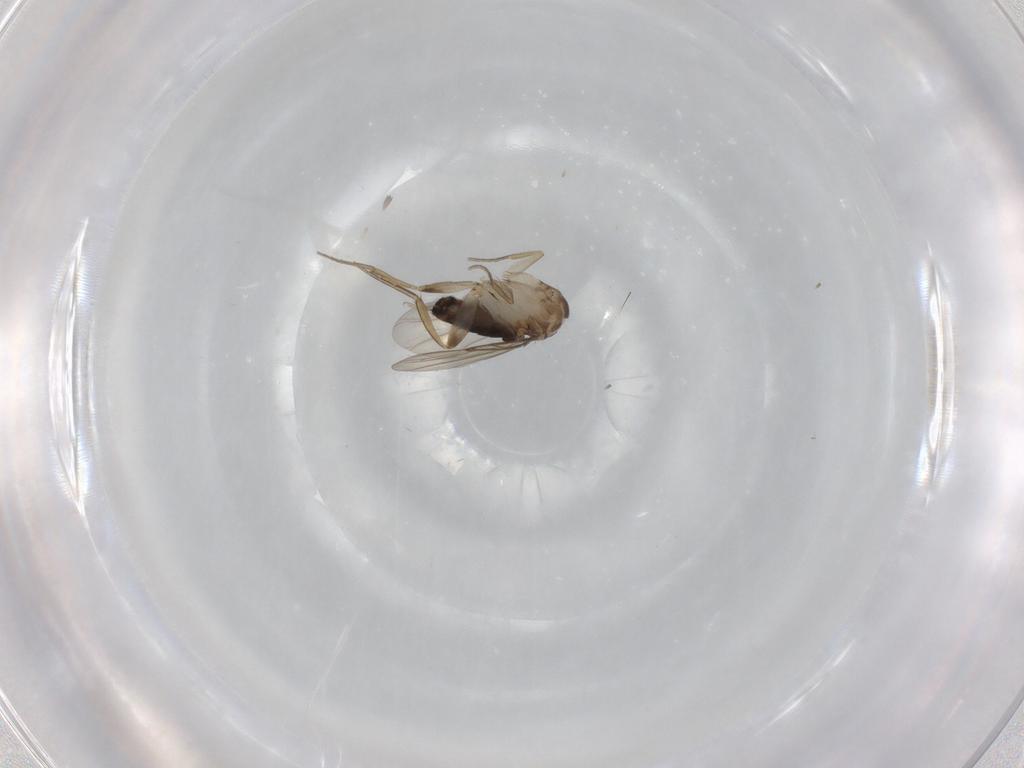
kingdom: Animalia
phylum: Arthropoda
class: Insecta
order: Diptera
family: Phoridae
